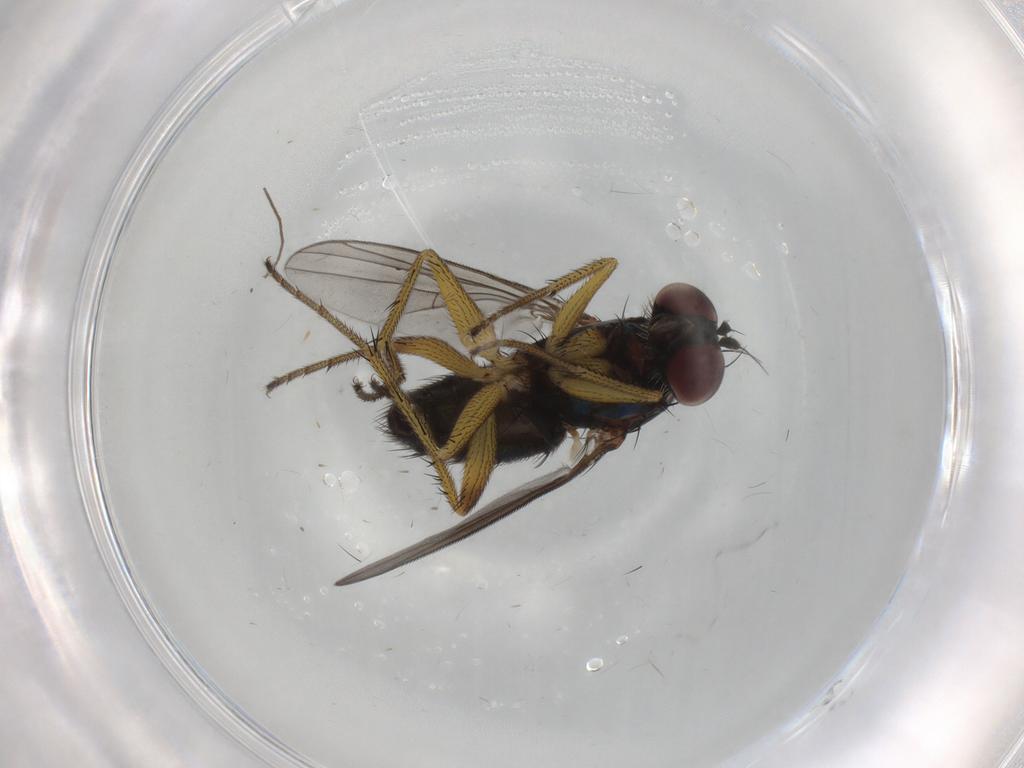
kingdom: Animalia
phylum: Arthropoda
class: Insecta
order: Diptera
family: Dolichopodidae
